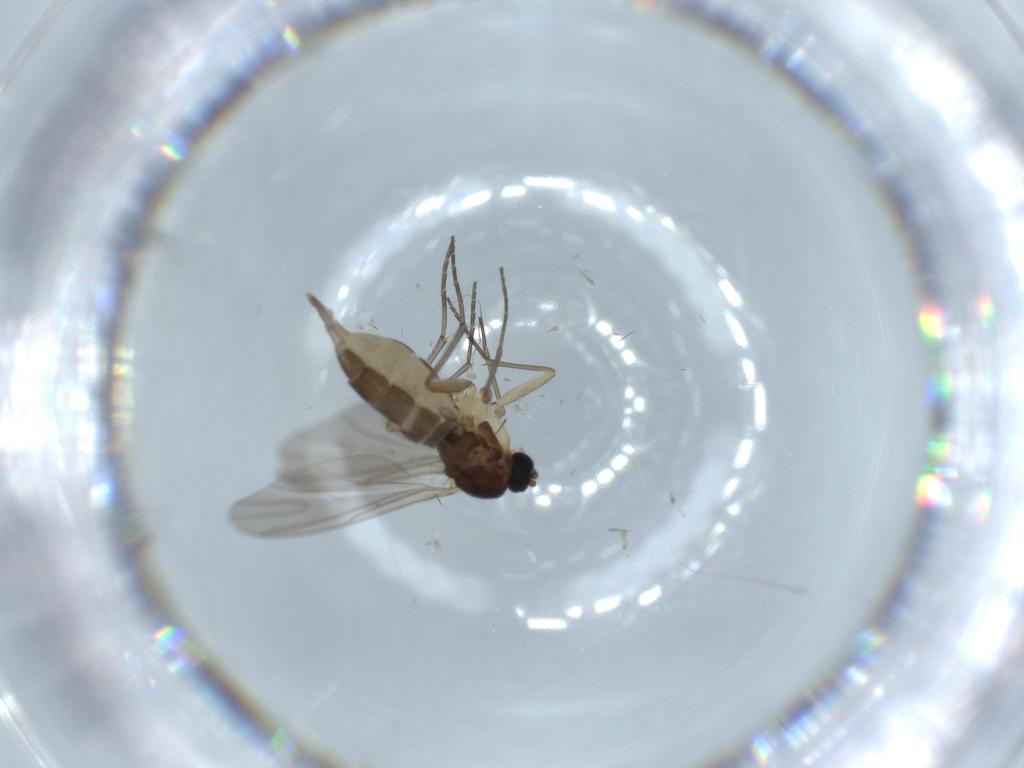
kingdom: Animalia
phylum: Arthropoda
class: Insecta
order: Diptera
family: Sciaridae
